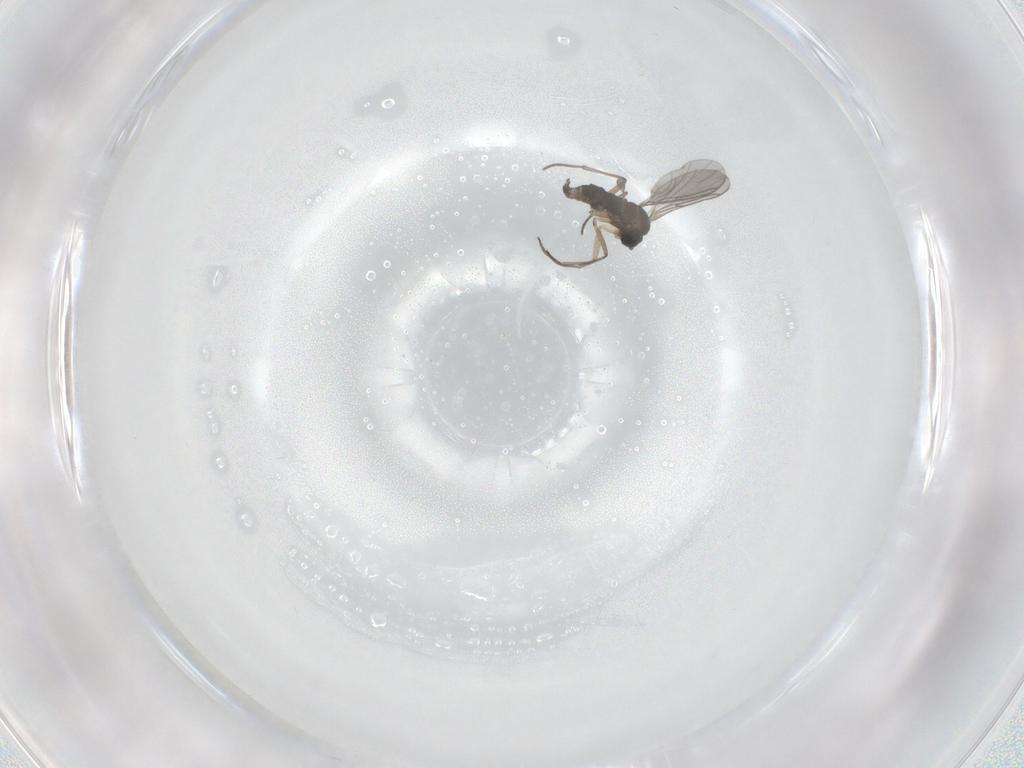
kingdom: Animalia
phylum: Arthropoda
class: Insecta
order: Diptera
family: Sciaridae
